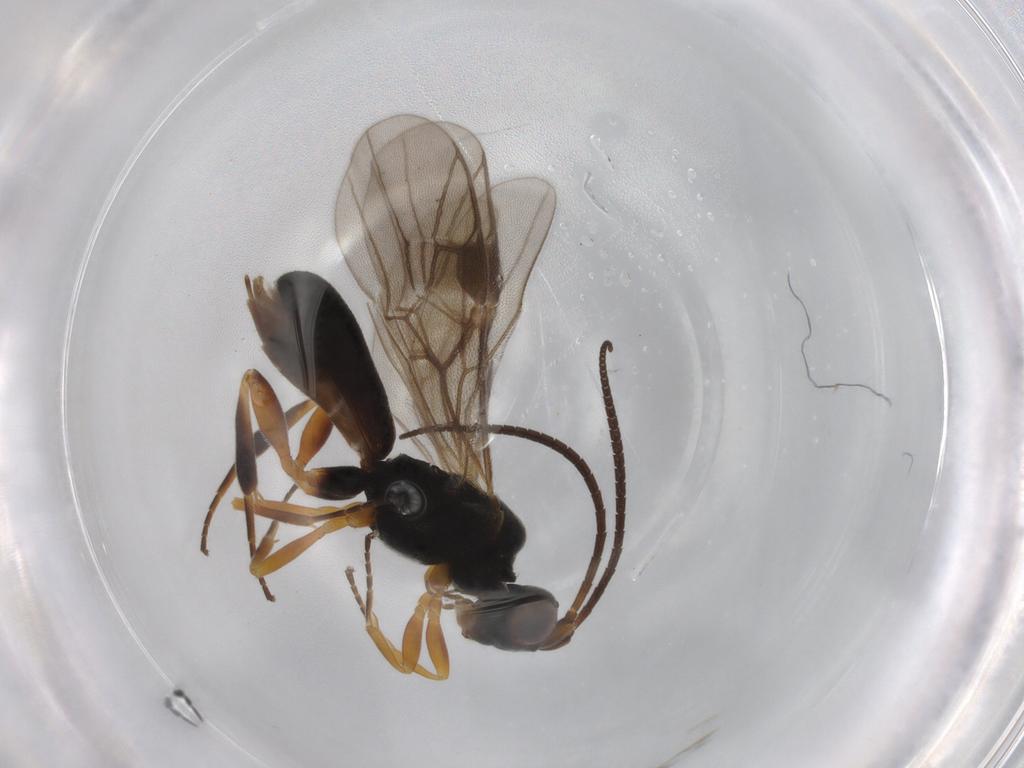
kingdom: Animalia
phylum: Arthropoda
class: Insecta
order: Hymenoptera
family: Braconidae
